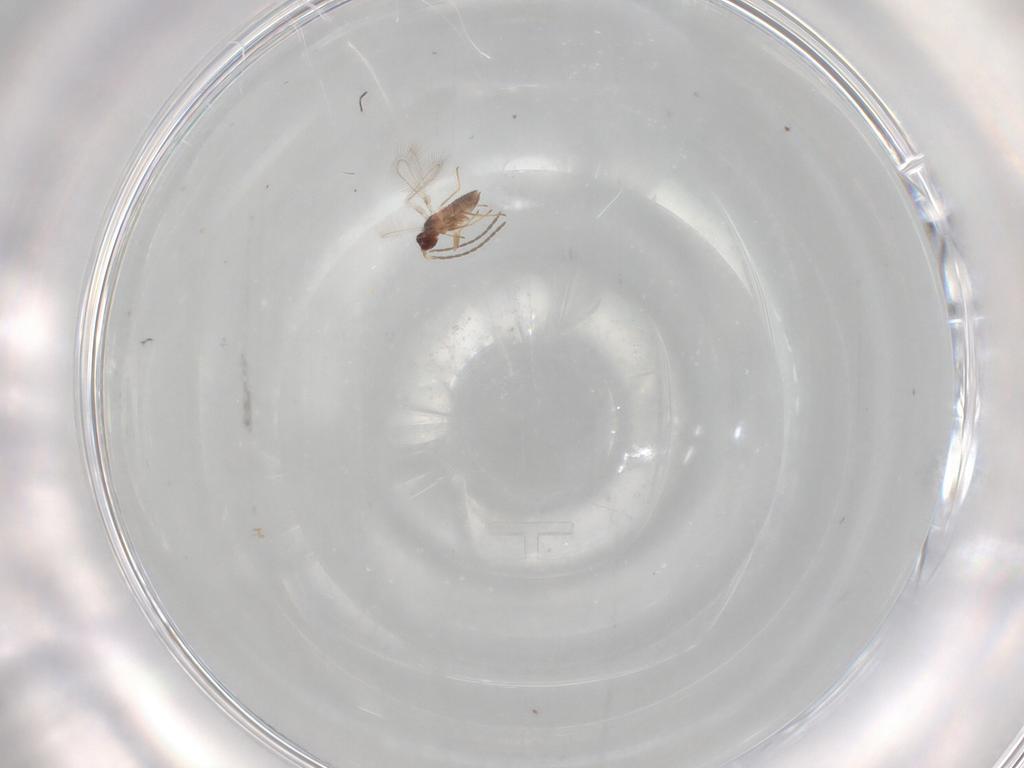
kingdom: Animalia
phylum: Arthropoda
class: Insecta
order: Hymenoptera
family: Mymaridae
